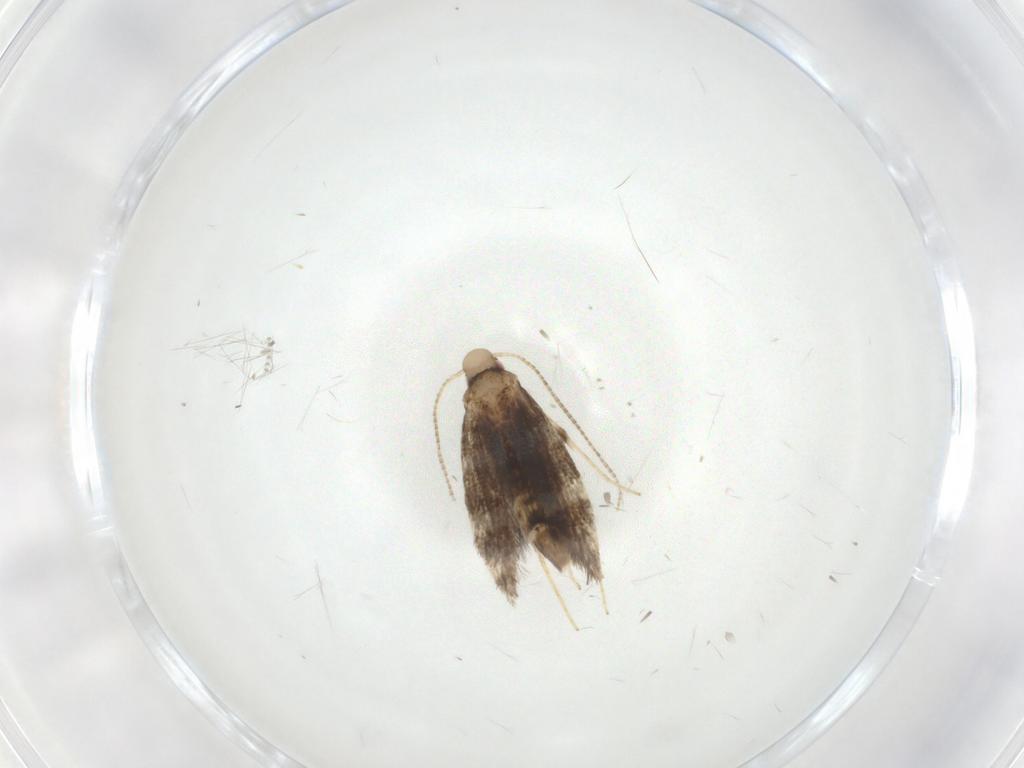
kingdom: Animalia
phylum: Arthropoda
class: Insecta
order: Lepidoptera
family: Gracillariidae
